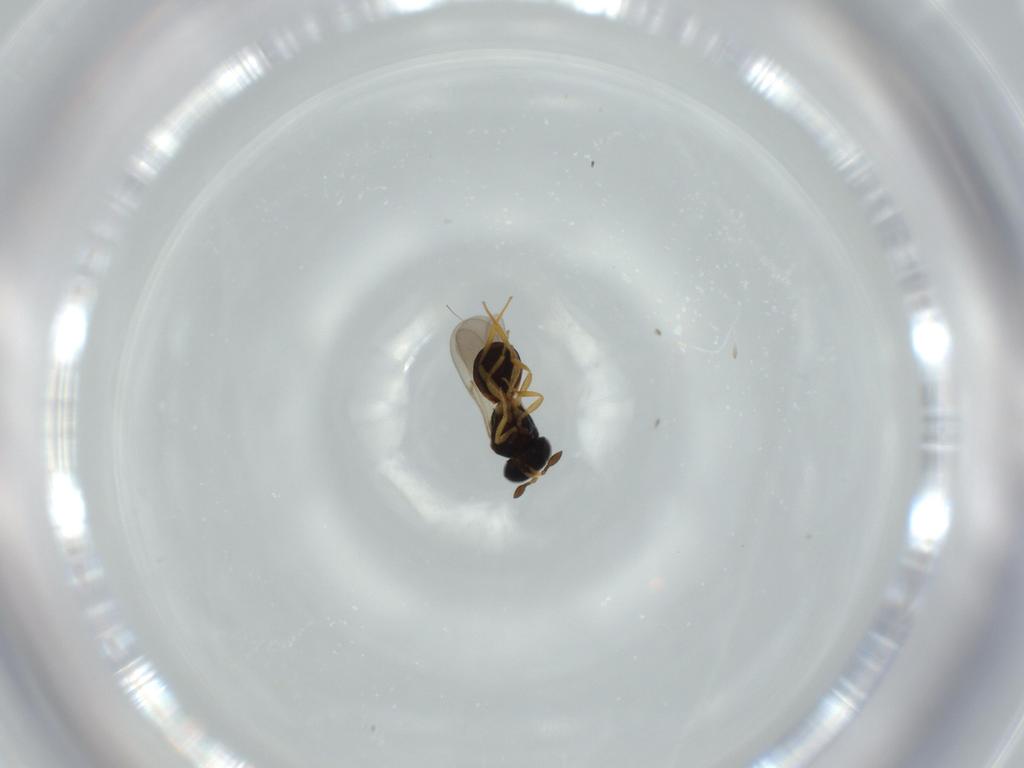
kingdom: Animalia
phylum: Arthropoda
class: Insecta
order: Hymenoptera
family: Scelionidae
